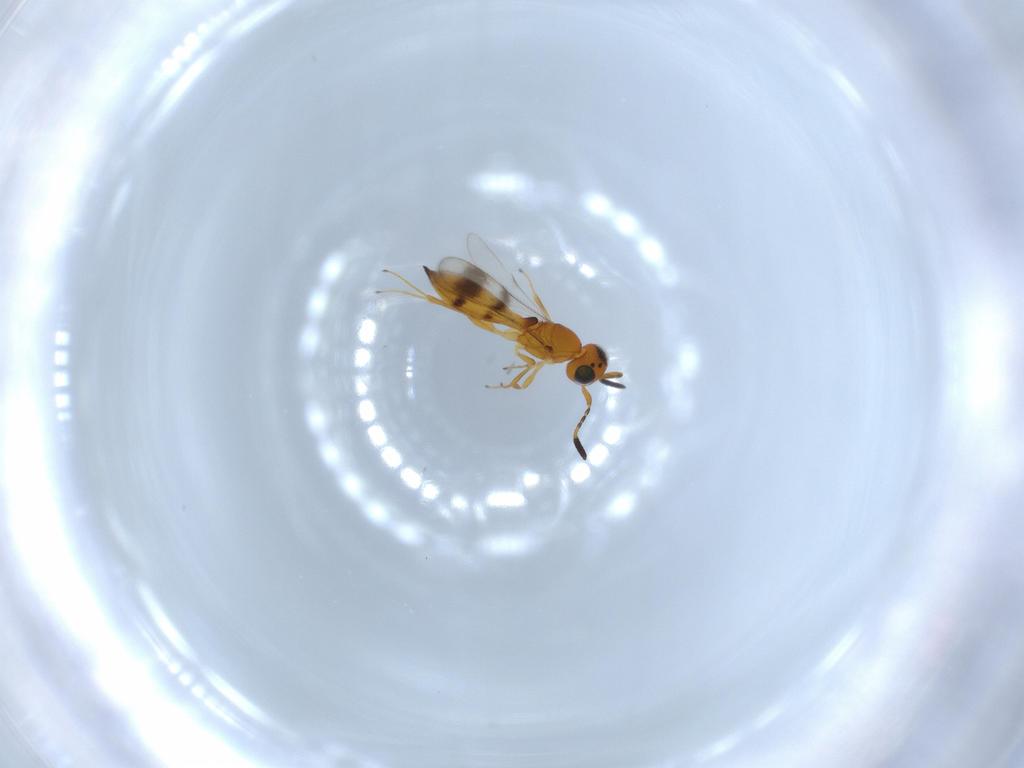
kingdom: Animalia
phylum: Arthropoda
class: Insecta
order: Hymenoptera
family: Scelionidae
